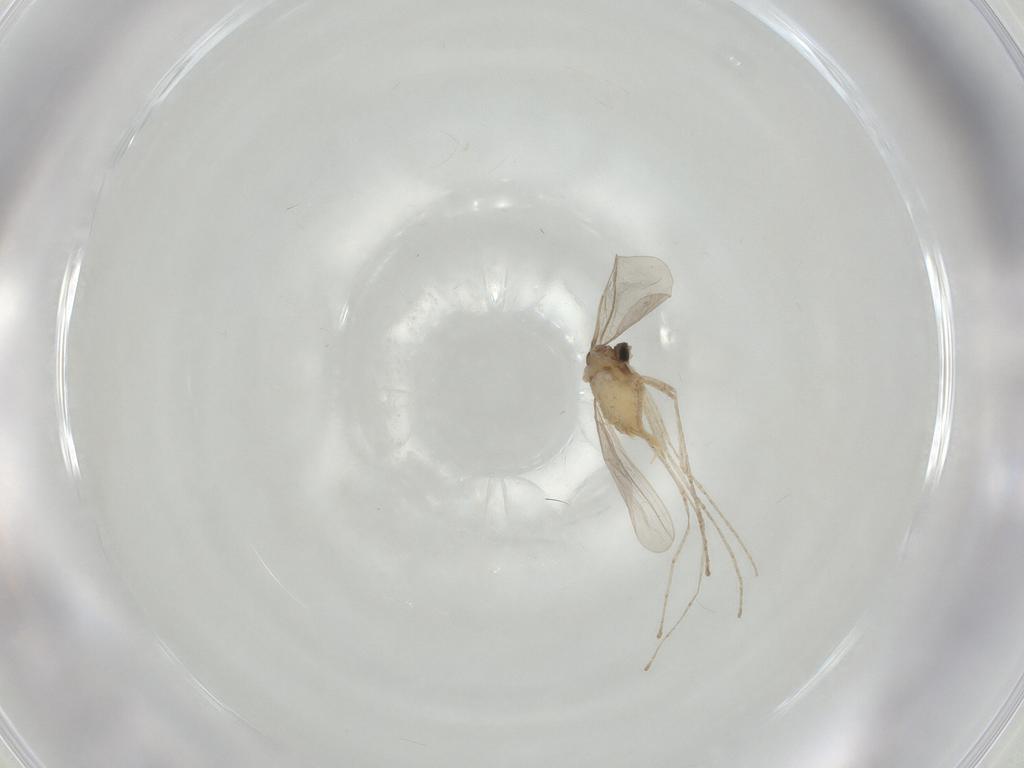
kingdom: Animalia
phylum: Arthropoda
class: Insecta
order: Diptera
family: Cecidomyiidae
